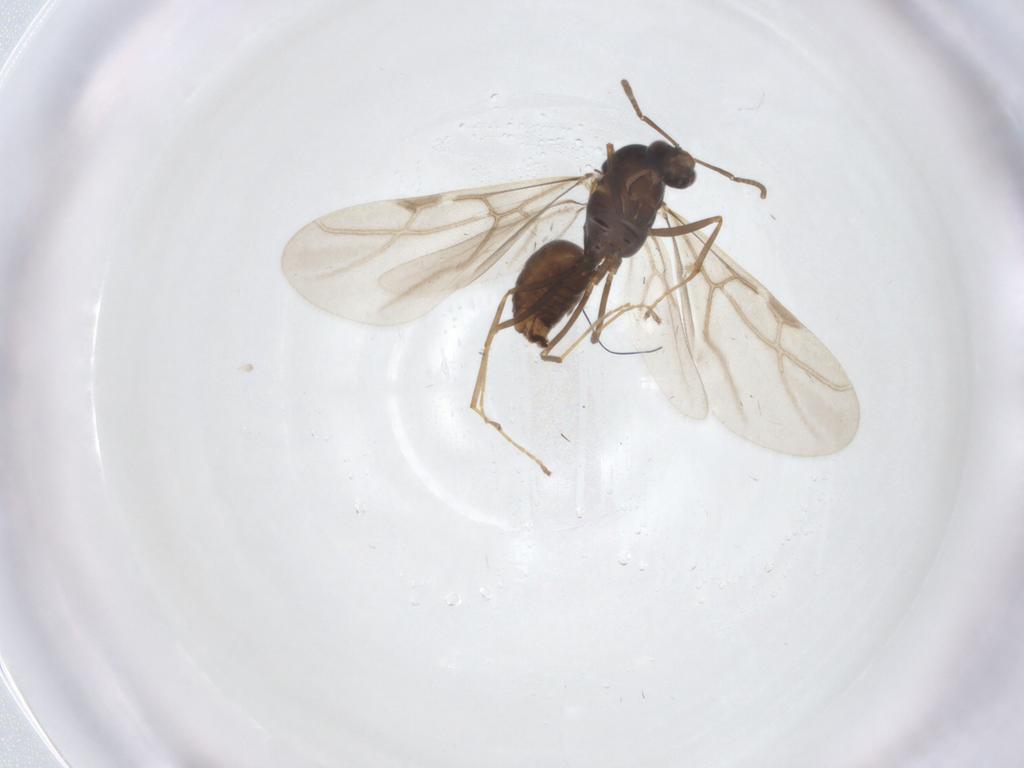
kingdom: Animalia
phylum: Arthropoda
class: Insecta
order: Hymenoptera
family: Formicidae
